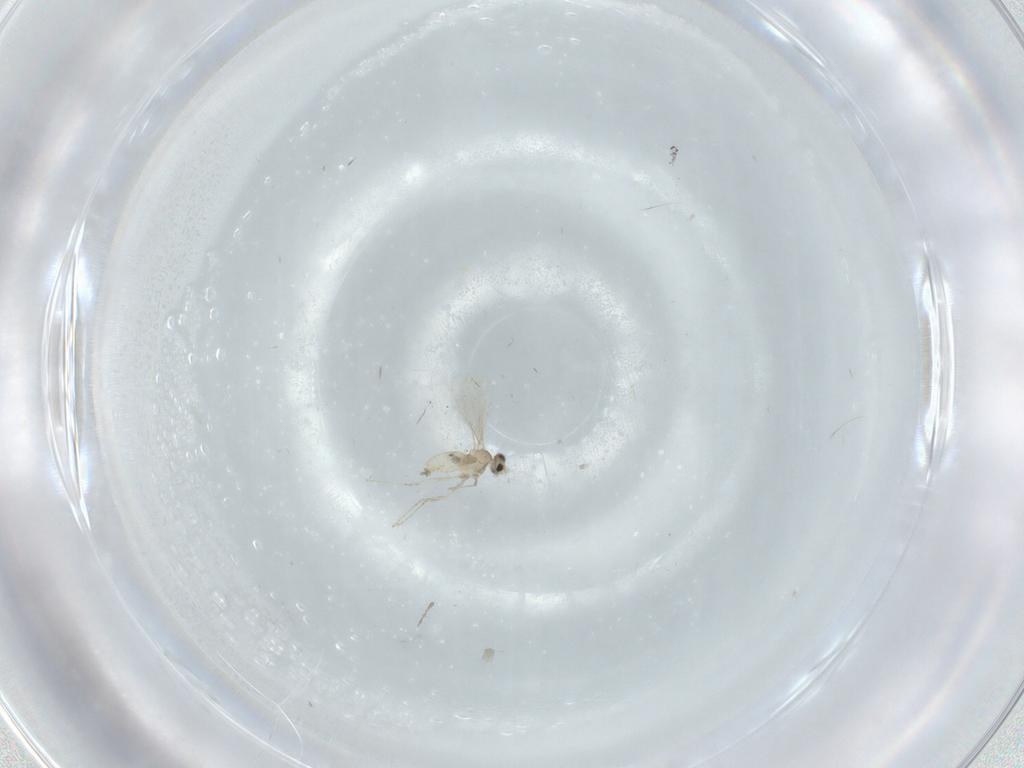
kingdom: Animalia
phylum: Arthropoda
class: Insecta
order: Diptera
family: Cecidomyiidae
